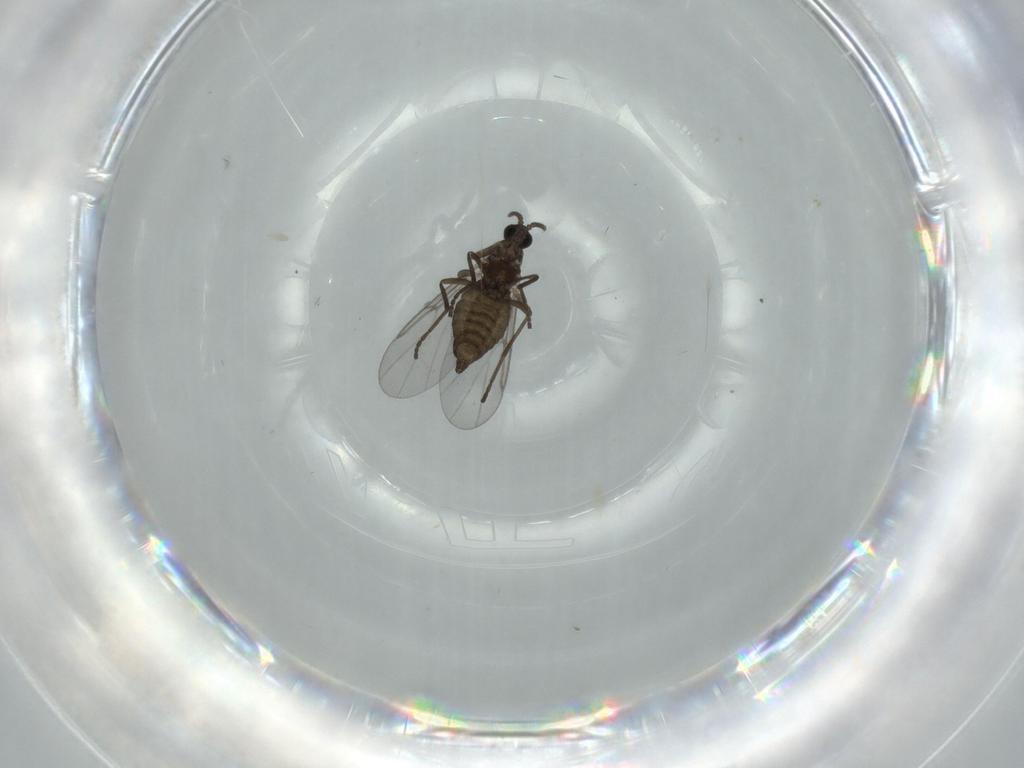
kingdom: Animalia
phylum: Arthropoda
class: Insecta
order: Diptera
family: Cecidomyiidae
